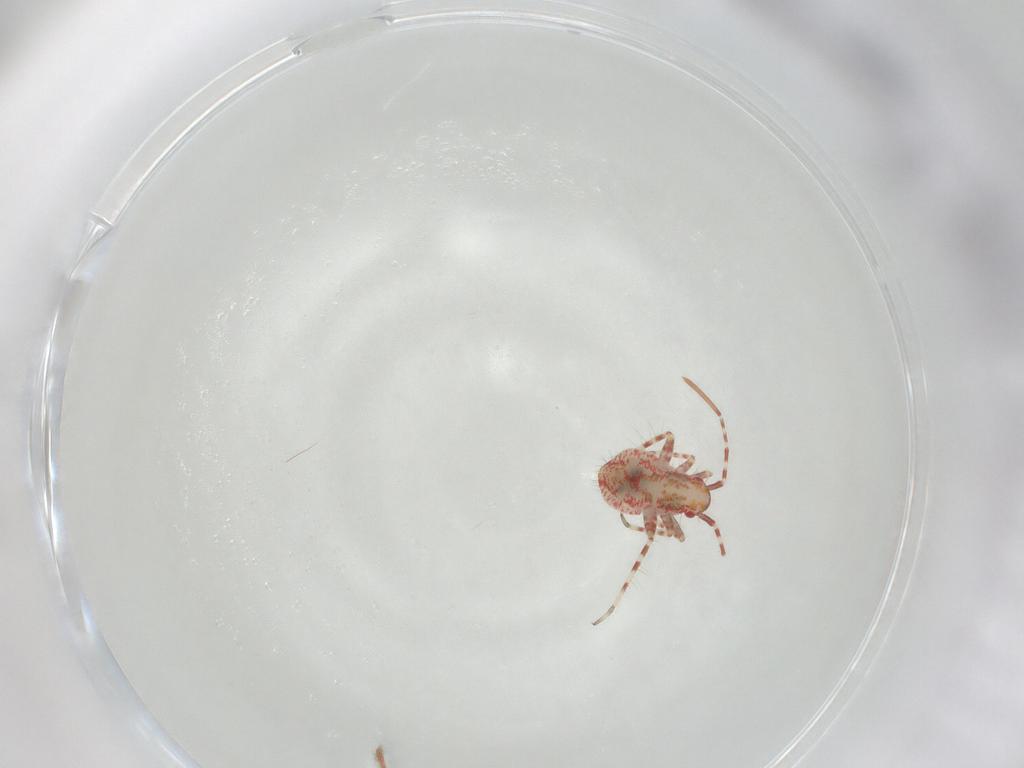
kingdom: Animalia
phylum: Arthropoda
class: Insecta
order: Hemiptera
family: Miridae
